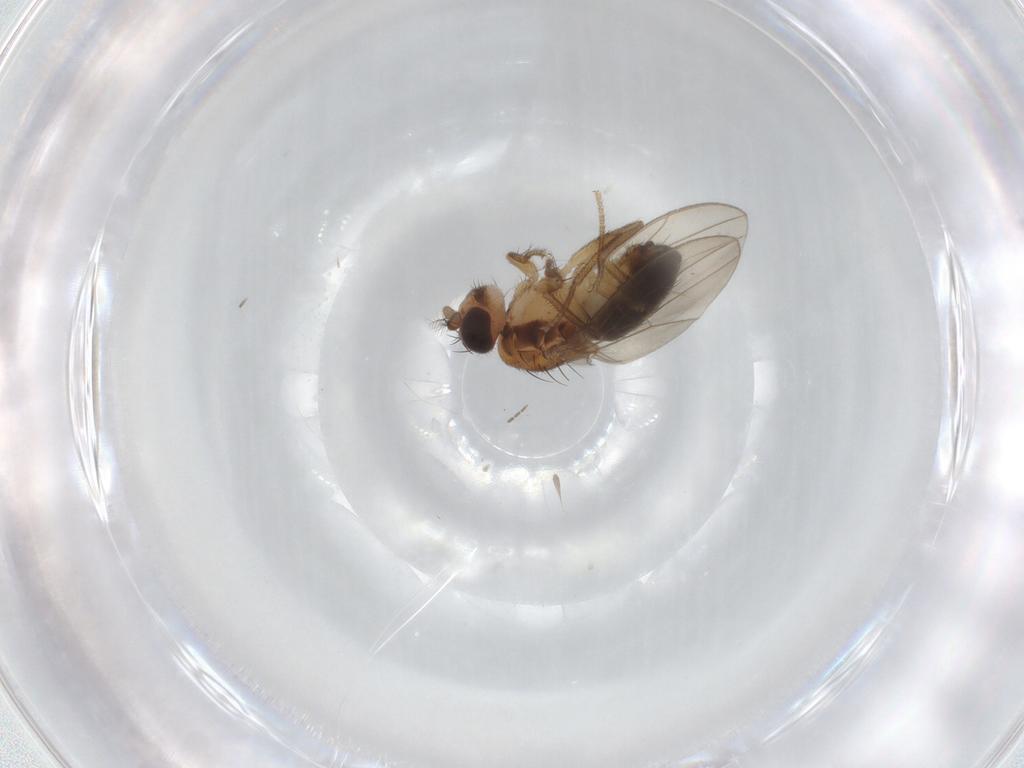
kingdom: Animalia
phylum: Arthropoda
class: Insecta
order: Diptera
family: Drosophilidae
